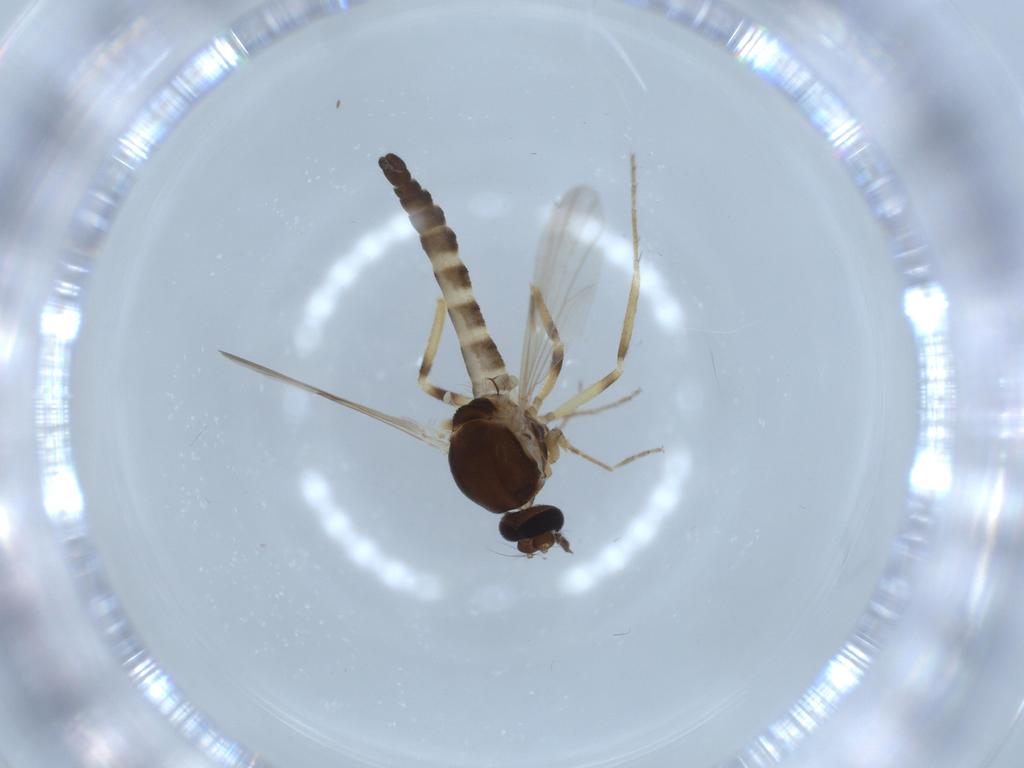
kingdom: Animalia
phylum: Arthropoda
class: Insecta
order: Diptera
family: Ceratopogonidae
